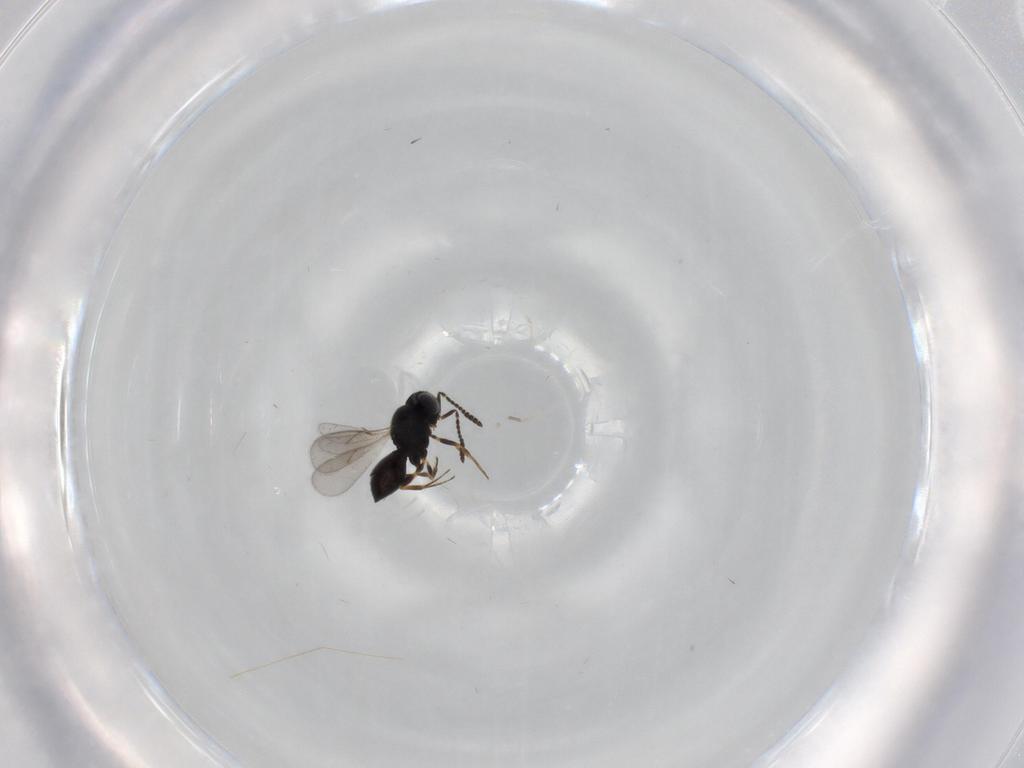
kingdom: Animalia
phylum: Arthropoda
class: Insecta
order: Hymenoptera
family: Scelionidae
